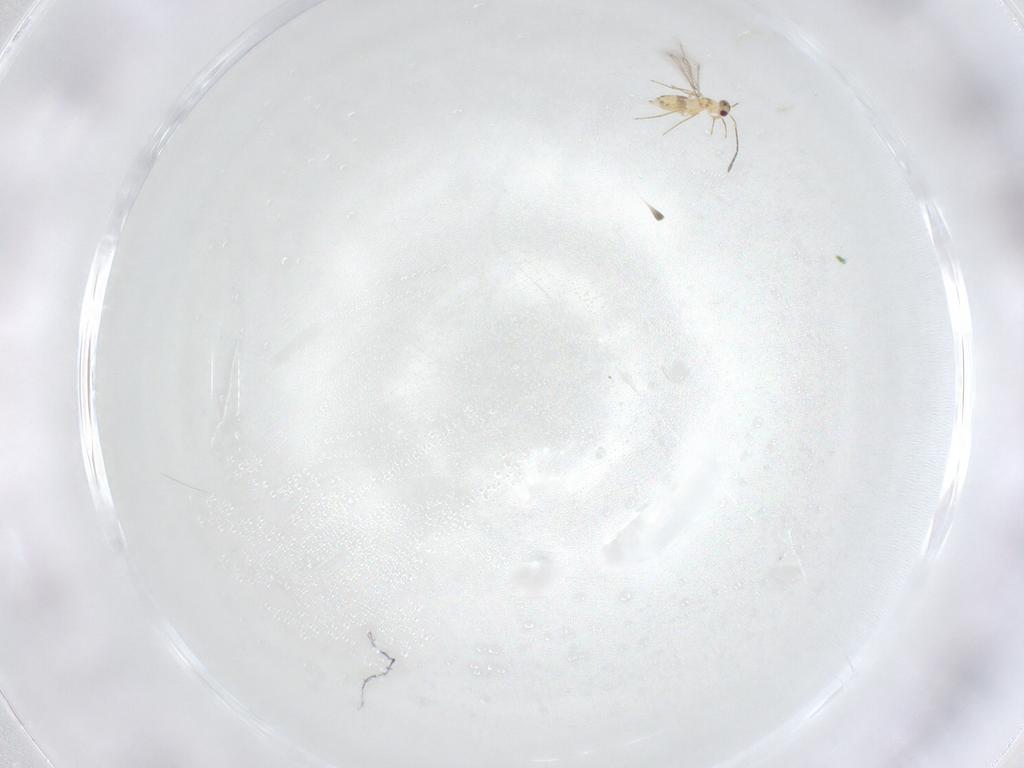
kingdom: Animalia
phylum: Arthropoda
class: Insecta
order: Hymenoptera
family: Mymaridae
